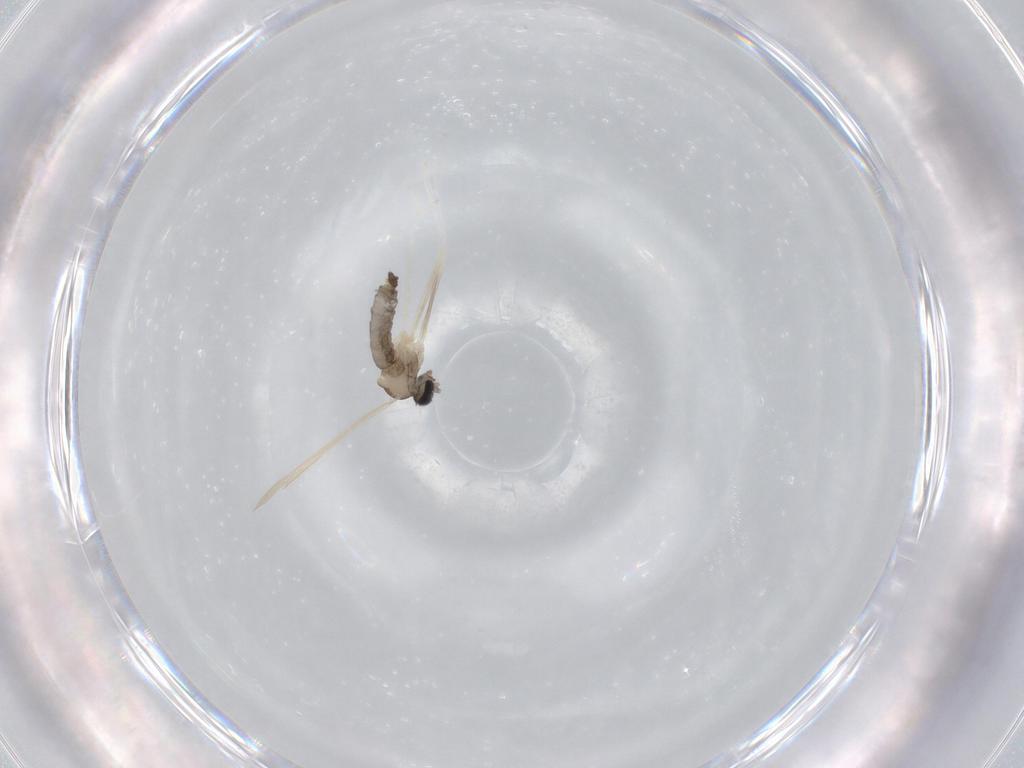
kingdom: Animalia
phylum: Arthropoda
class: Insecta
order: Diptera
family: Cecidomyiidae
